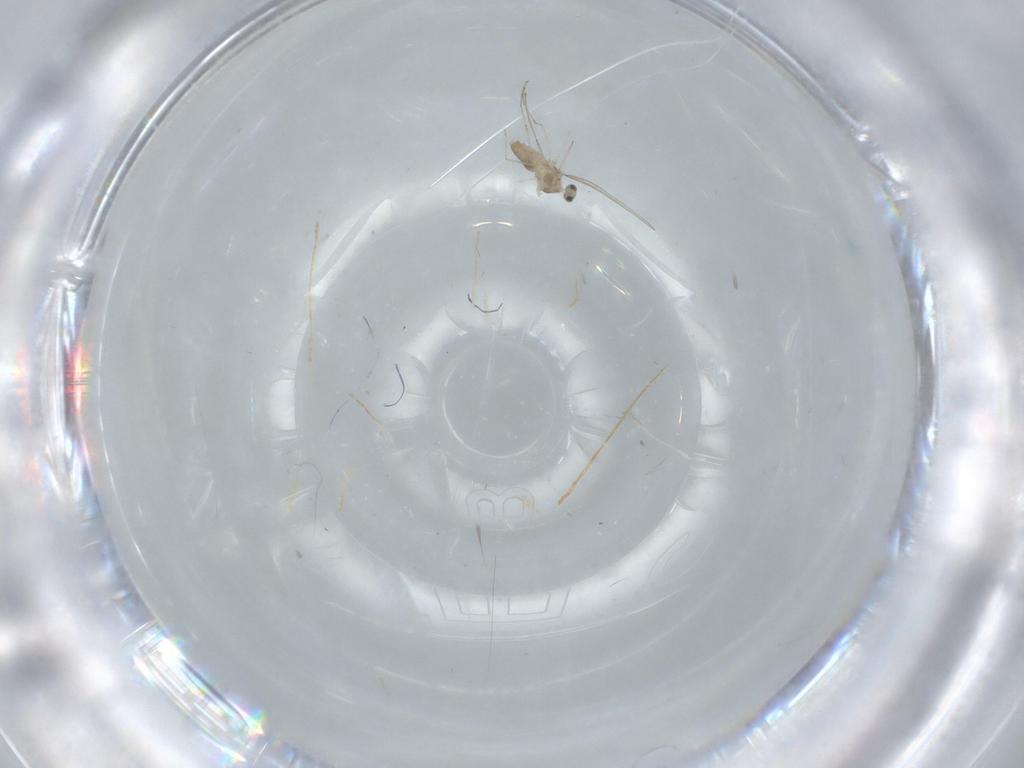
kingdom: Animalia
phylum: Arthropoda
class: Insecta
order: Diptera
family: Cecidomyiidae
